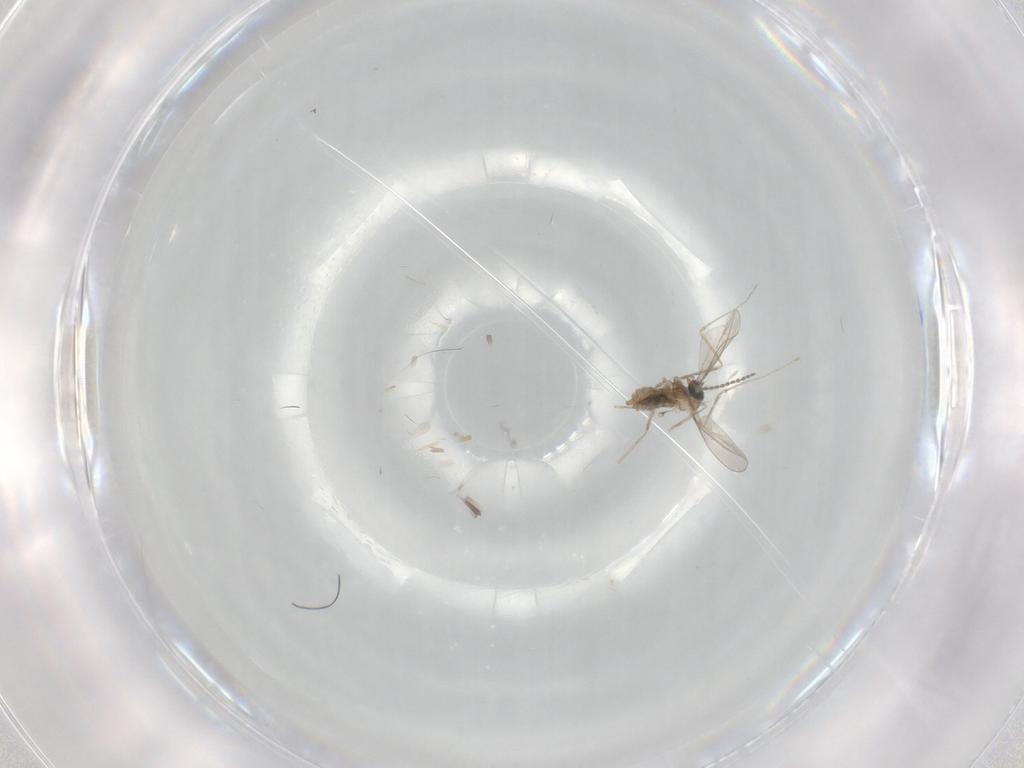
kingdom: Animalia
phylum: Arthropoda
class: Insecta
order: Diptera
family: Cecidomyiidae
